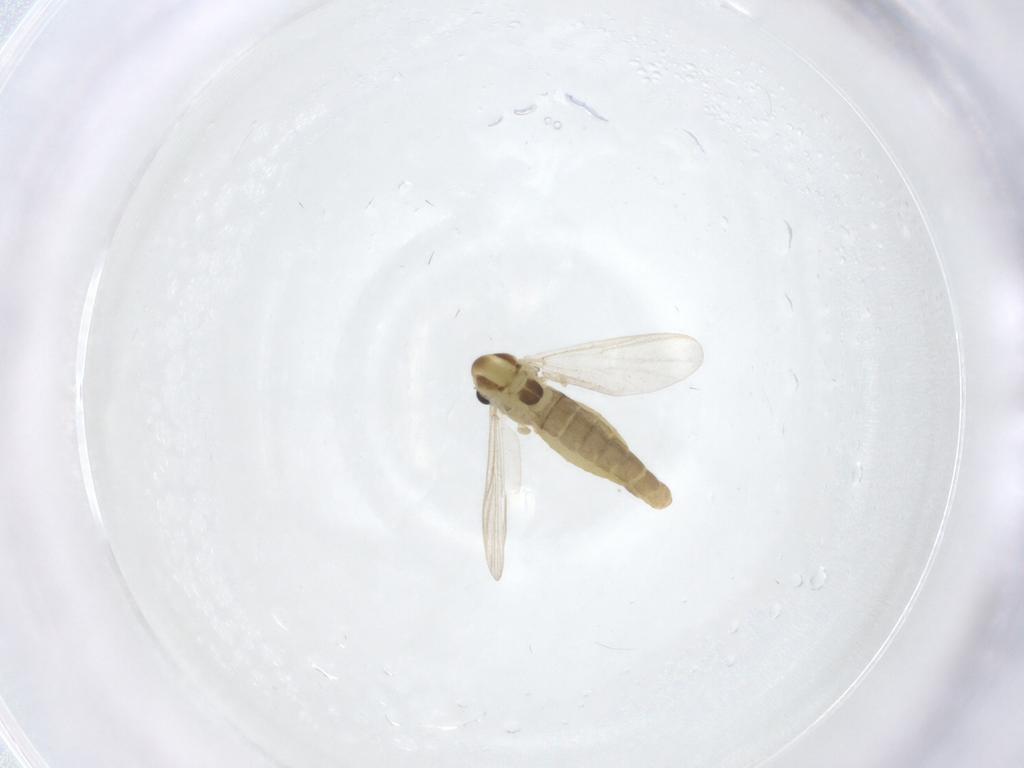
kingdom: Animalia
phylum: Arthropoda
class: Insecta
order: Diptera
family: Chironomidae
